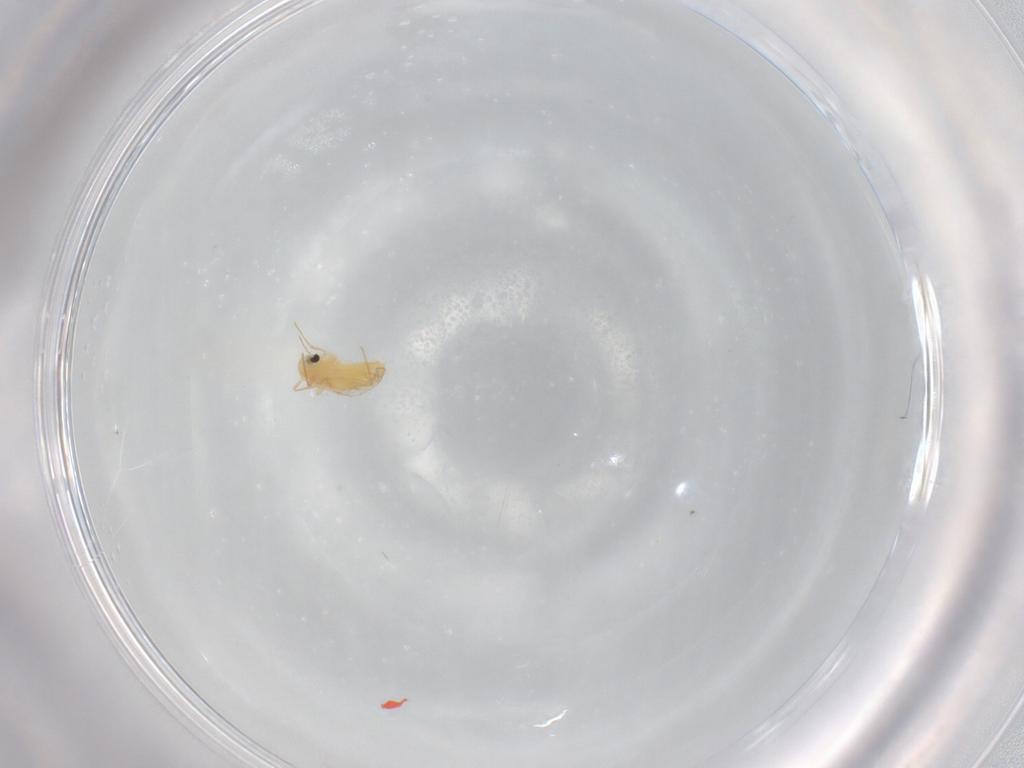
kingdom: Animalia
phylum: Arthropoda
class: Insecta
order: Diptera
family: Chironomidae
